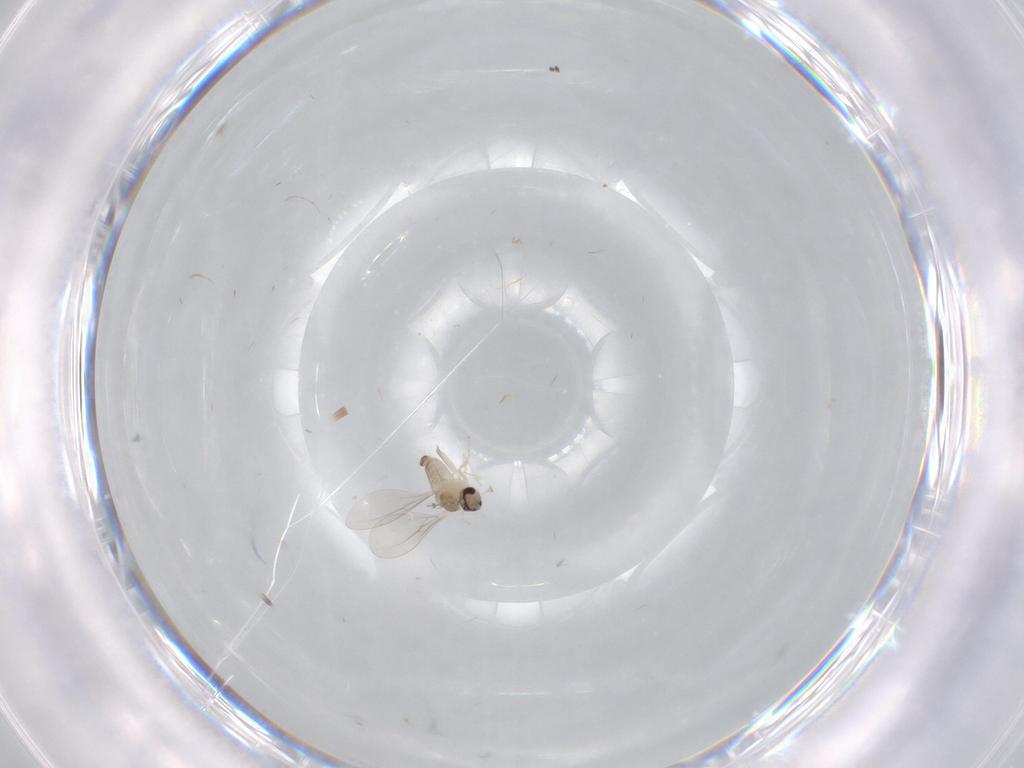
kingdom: Animalia
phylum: Arthropoda
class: Insecta
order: Diptera
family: Cecidomyiidae
